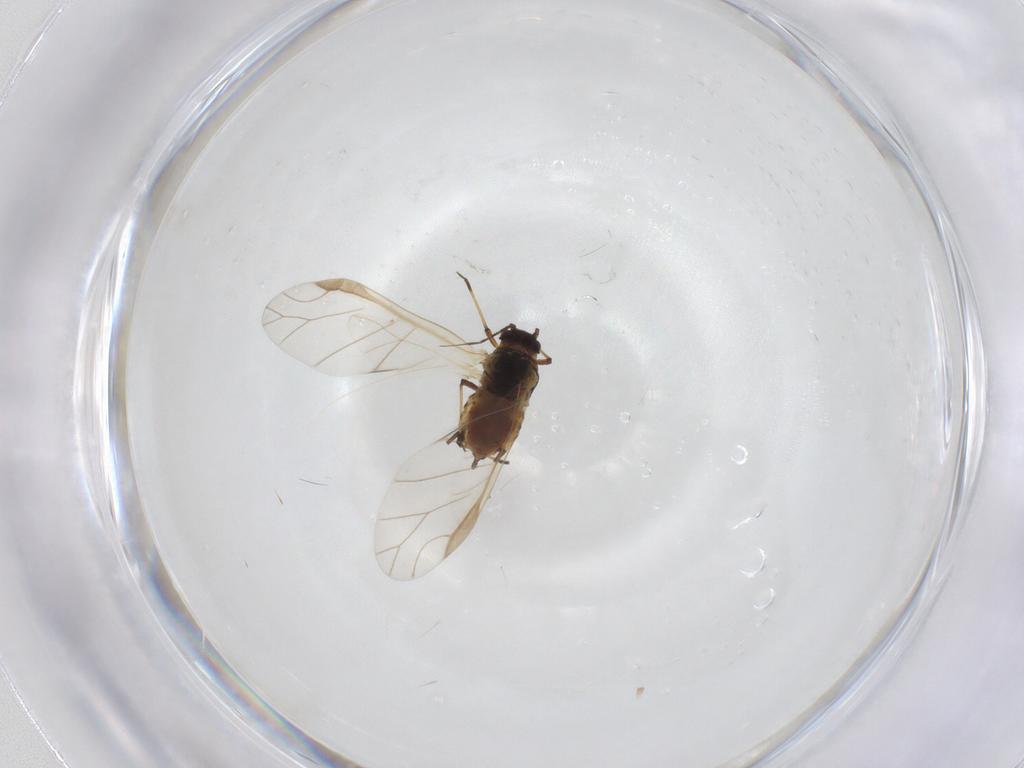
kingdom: Animalia
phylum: Arthropoda
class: Insecta
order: Hemiptera
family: Aphididae
